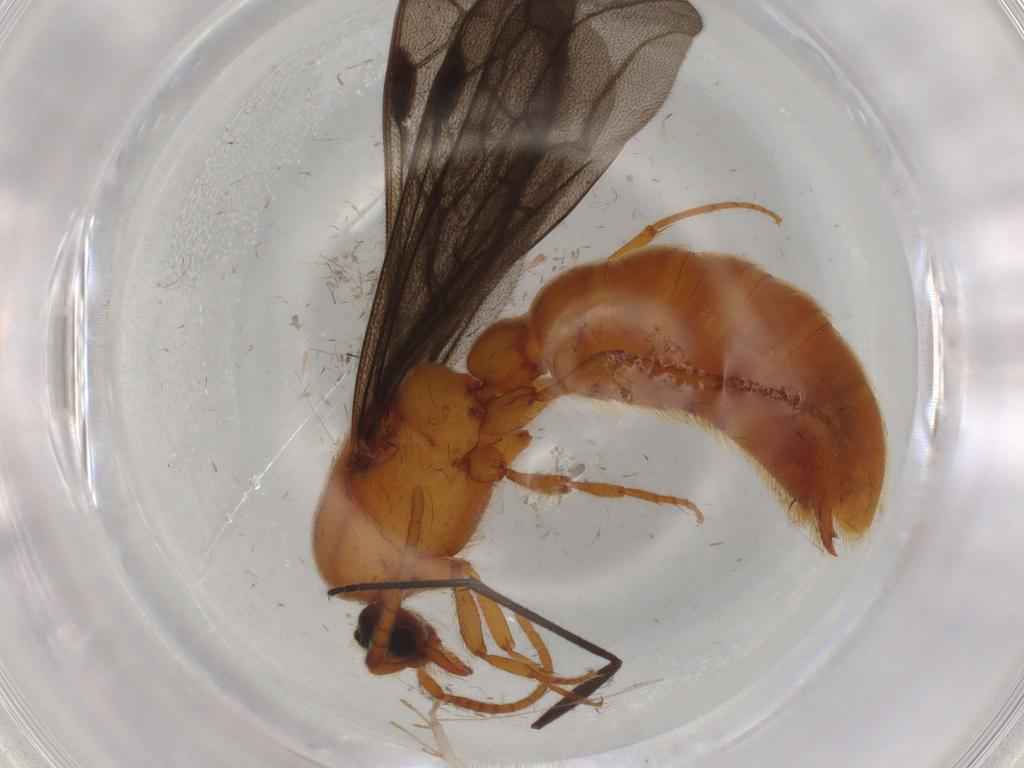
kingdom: Animalia
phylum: Arthropoda
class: Insecta
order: Hymenoptera
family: Formicidae
